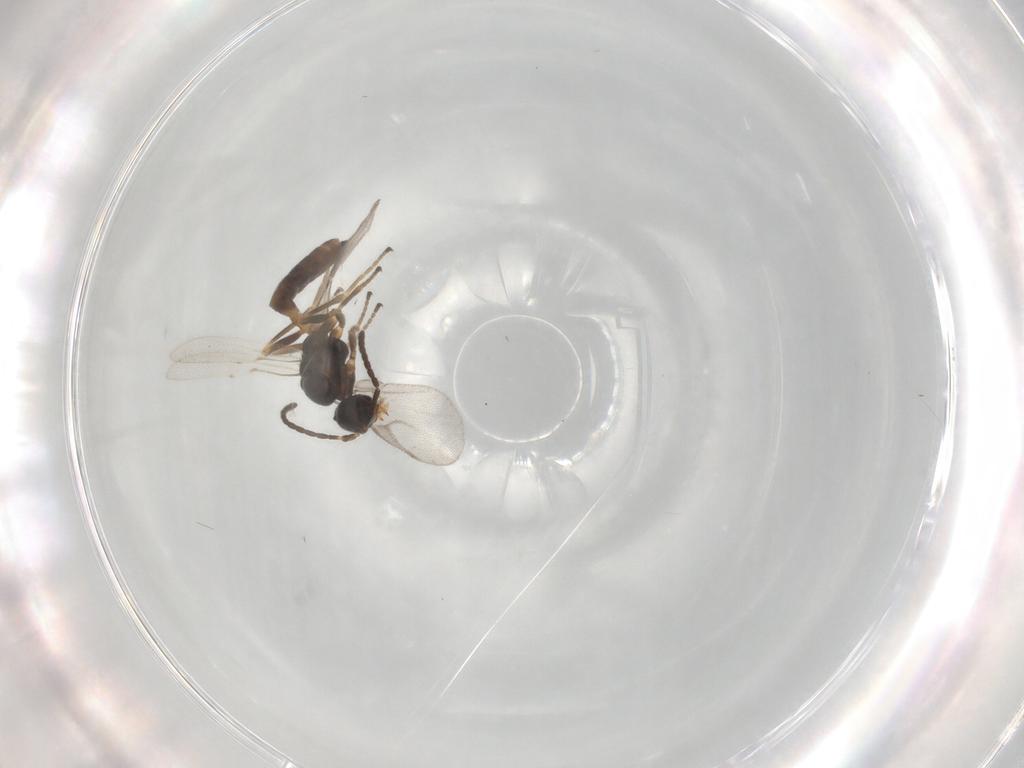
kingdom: Animalia
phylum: Arthropoda
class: Insecta
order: Hymenoptera
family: Braconidae
